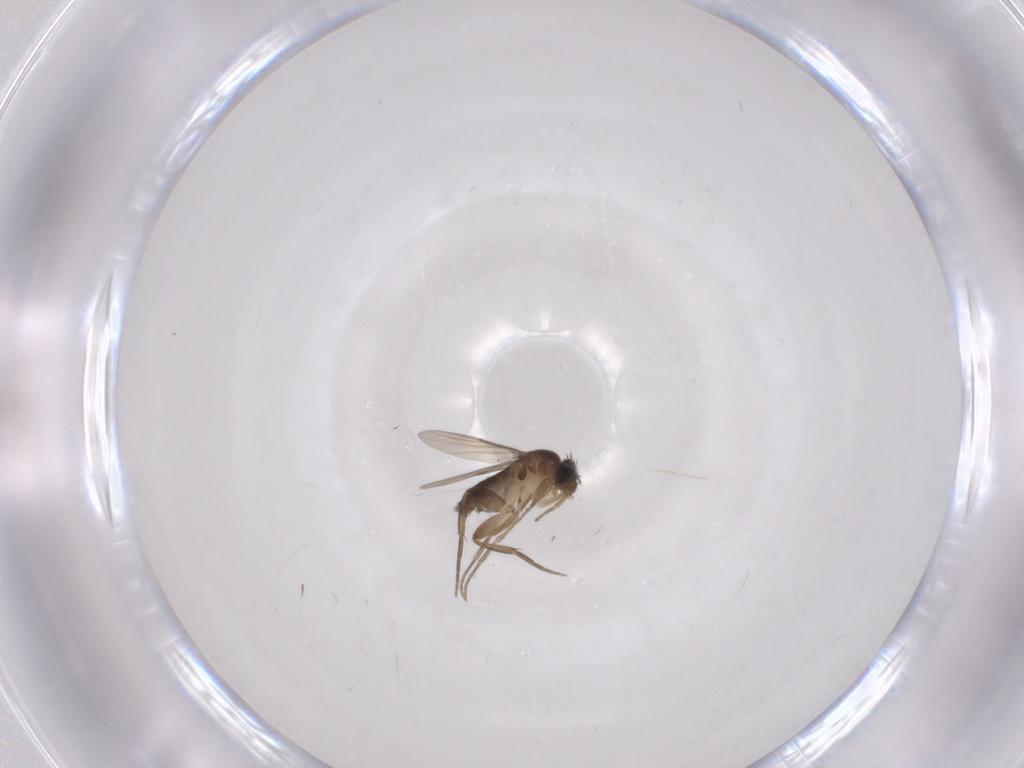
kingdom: Animalia
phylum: Arthropoda
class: Insecta
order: Diptera
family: Phoridae
